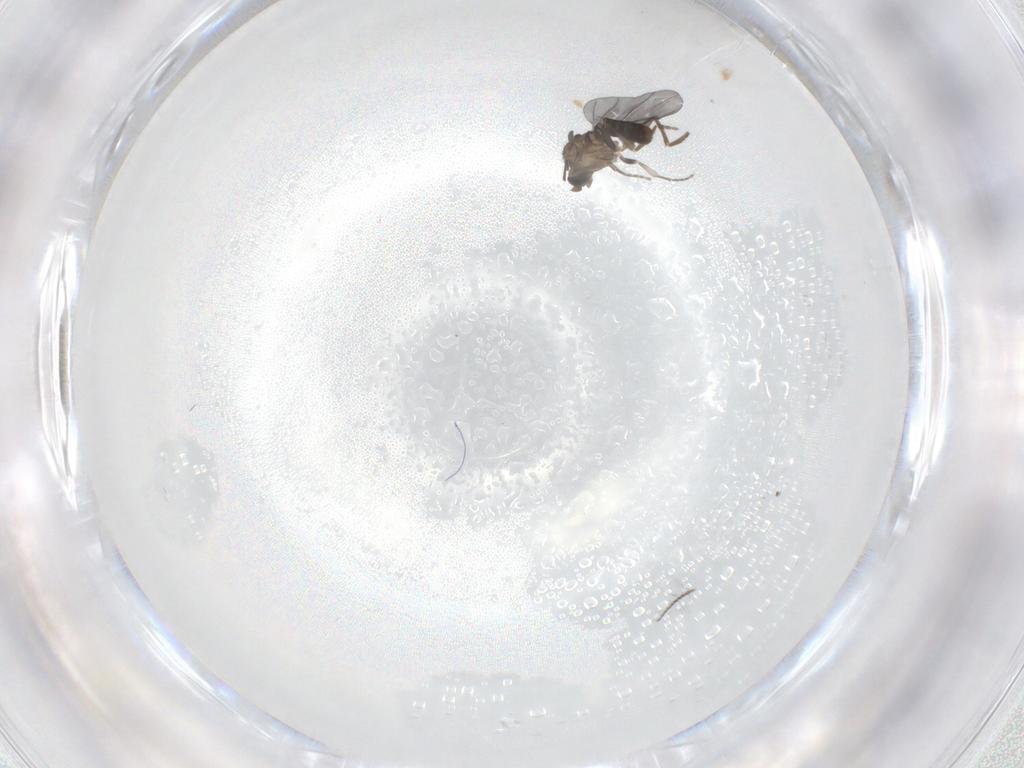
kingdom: Animalia
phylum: Arthropoda
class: Insecta
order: Diptera
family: Phoridae
